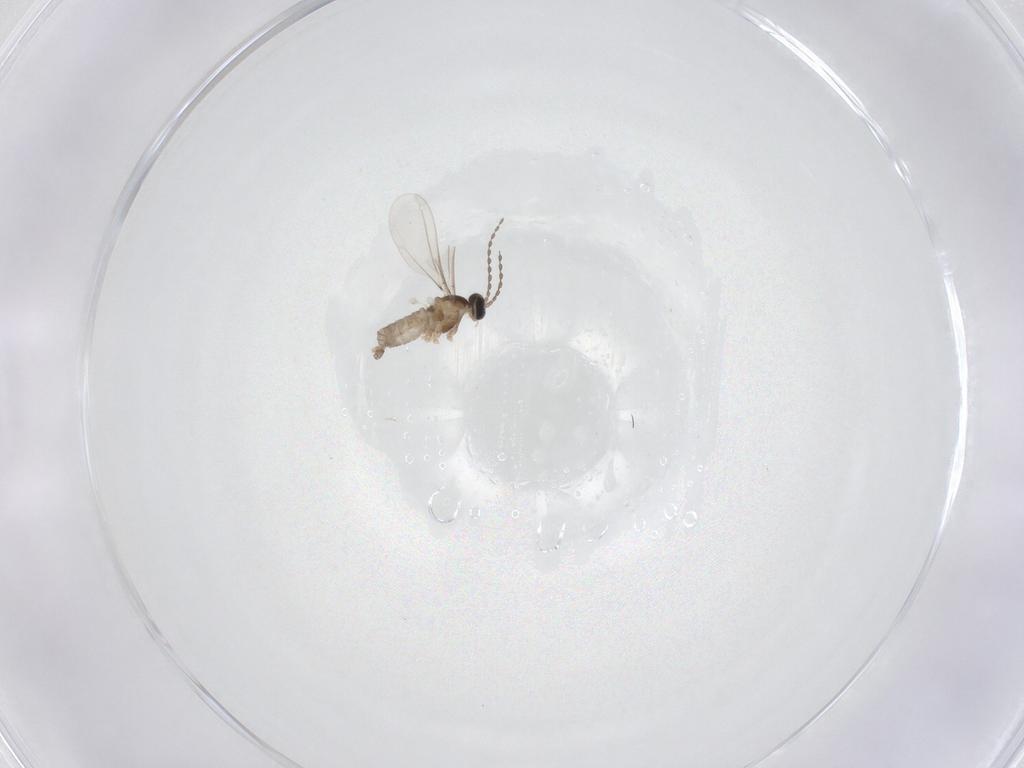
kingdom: Animalia
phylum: Arthropoda
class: Insecta
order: Diptera
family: Cecidomyiidae
